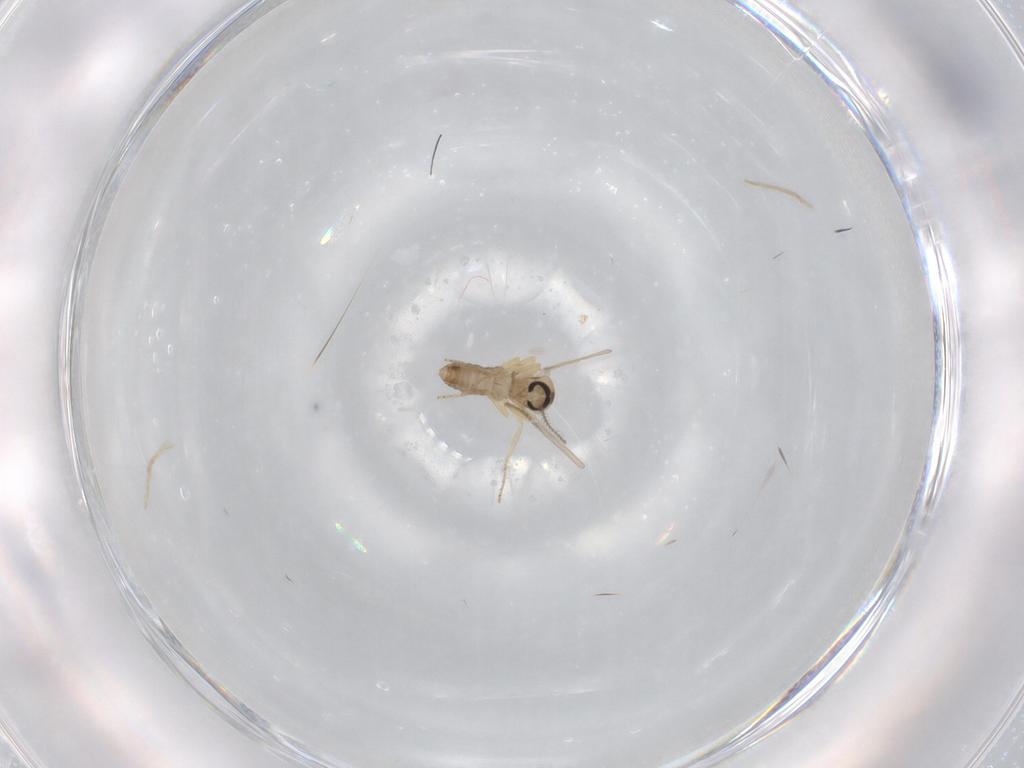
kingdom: Animalia
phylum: Arthropoda
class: Insecta
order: Diptera
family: Ceratopogonidae
